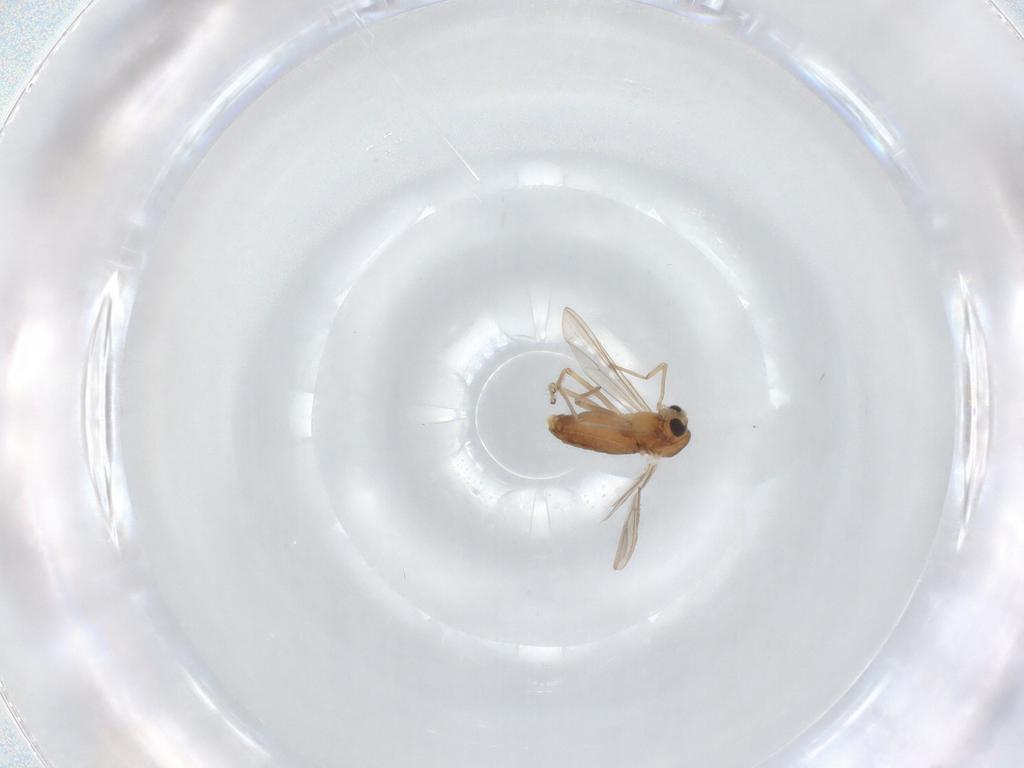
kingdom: Animalia
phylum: Arthropoda
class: Insecta
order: Diptera
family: Chironomidae
